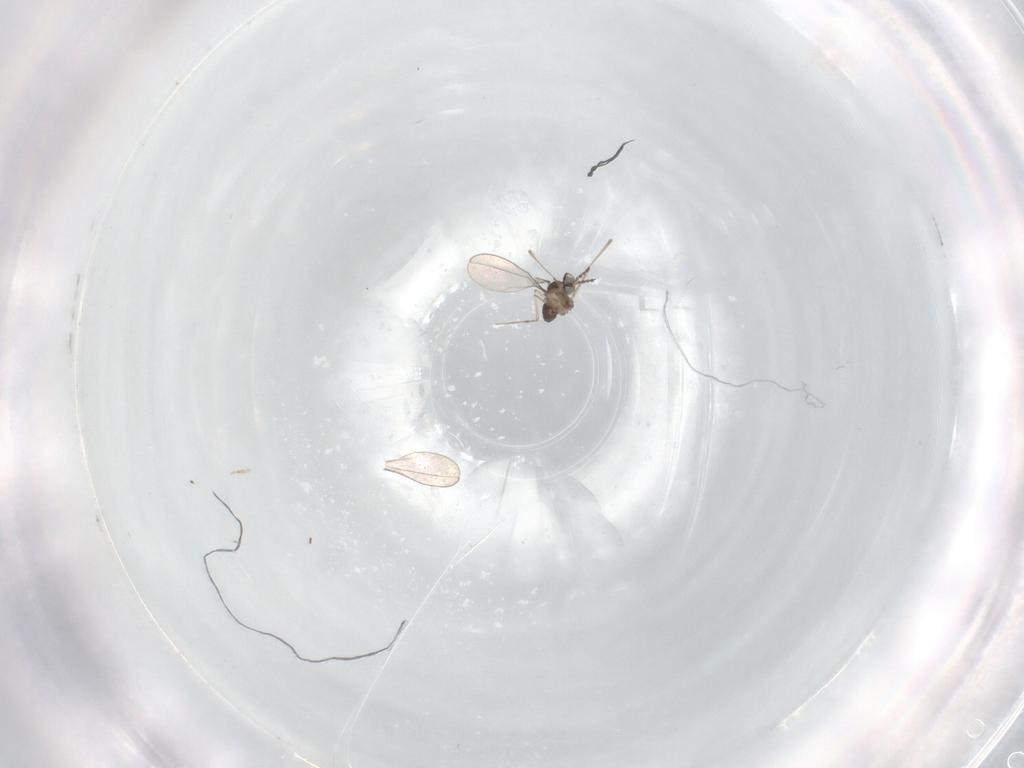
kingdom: Animalia
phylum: Arthropoda
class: Insecta
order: Diptera
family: Cecidomyiidae
